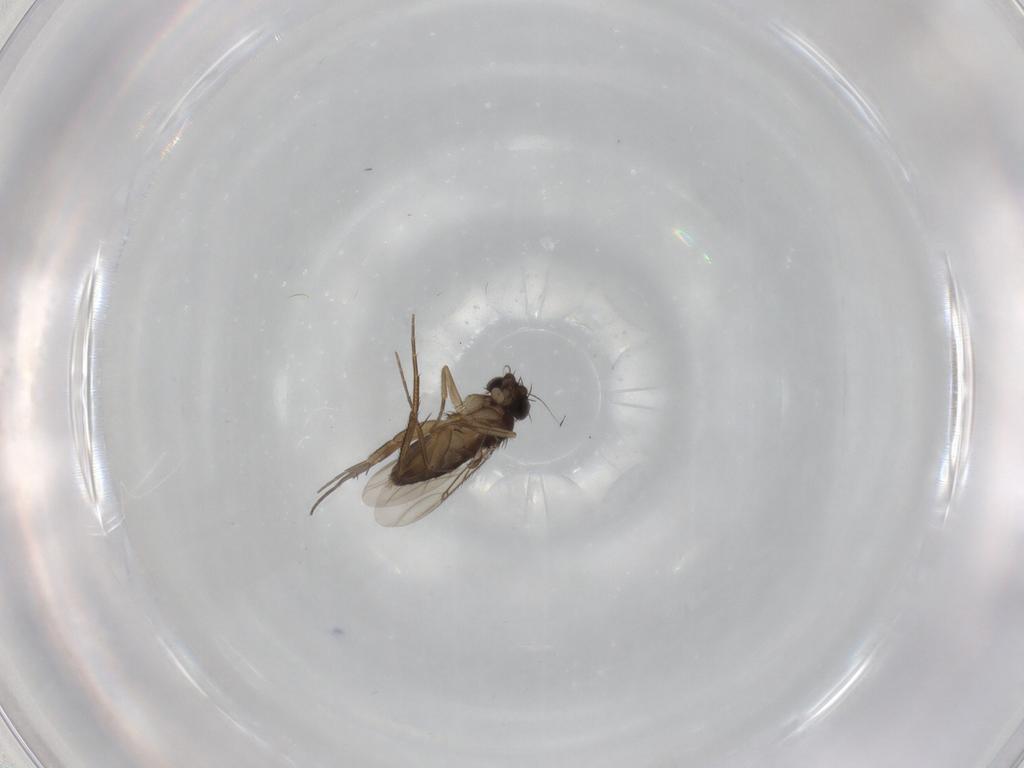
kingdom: Animalia
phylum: Arthropoda
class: Insecta
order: Diptera
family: Phoridae
